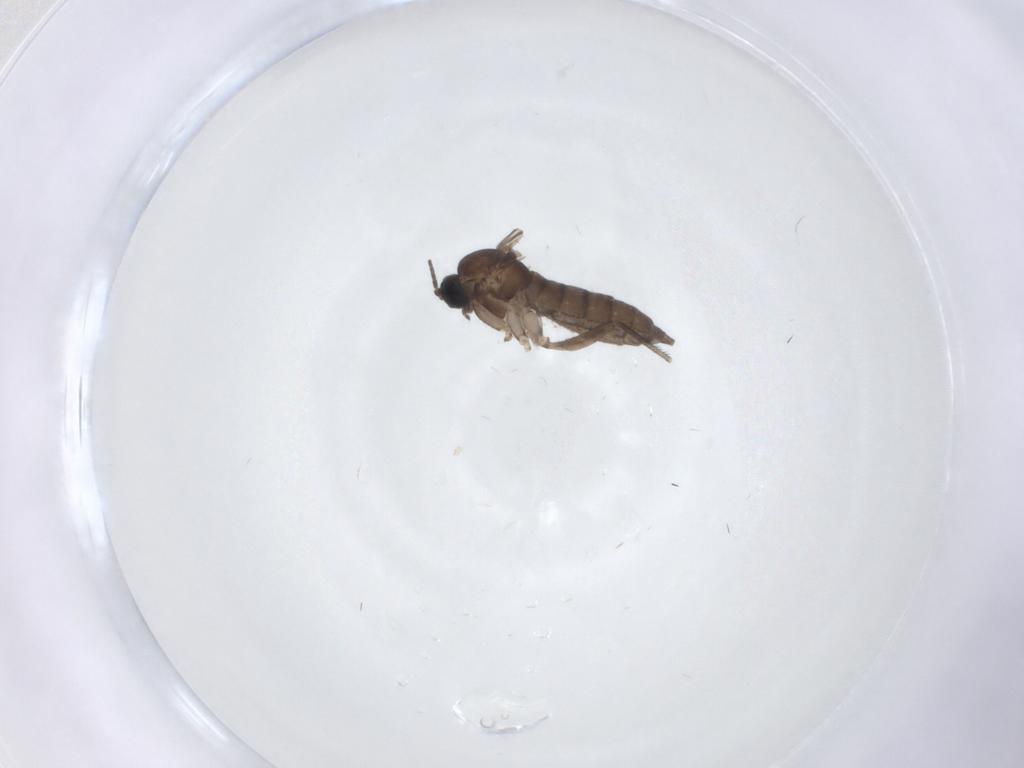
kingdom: Animalia
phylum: Arthropoda
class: Insecta
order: Diptera
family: Sciaridae
